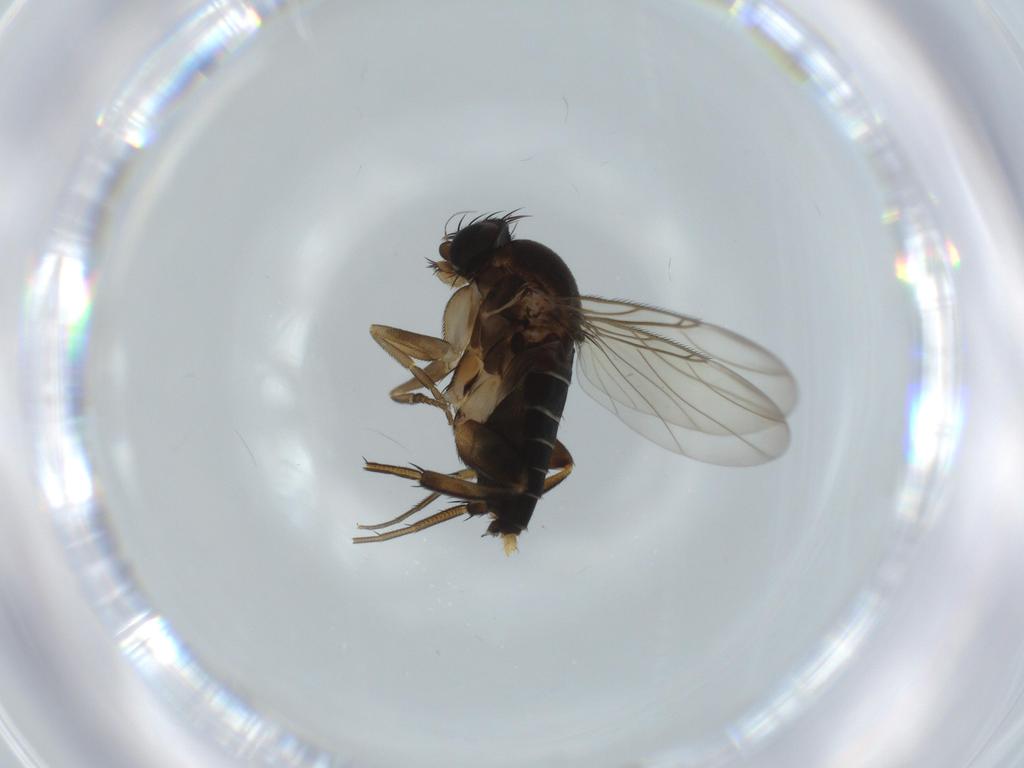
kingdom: Animalia
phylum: Arthropoda
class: Insecta
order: Diptera
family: Phoridae
